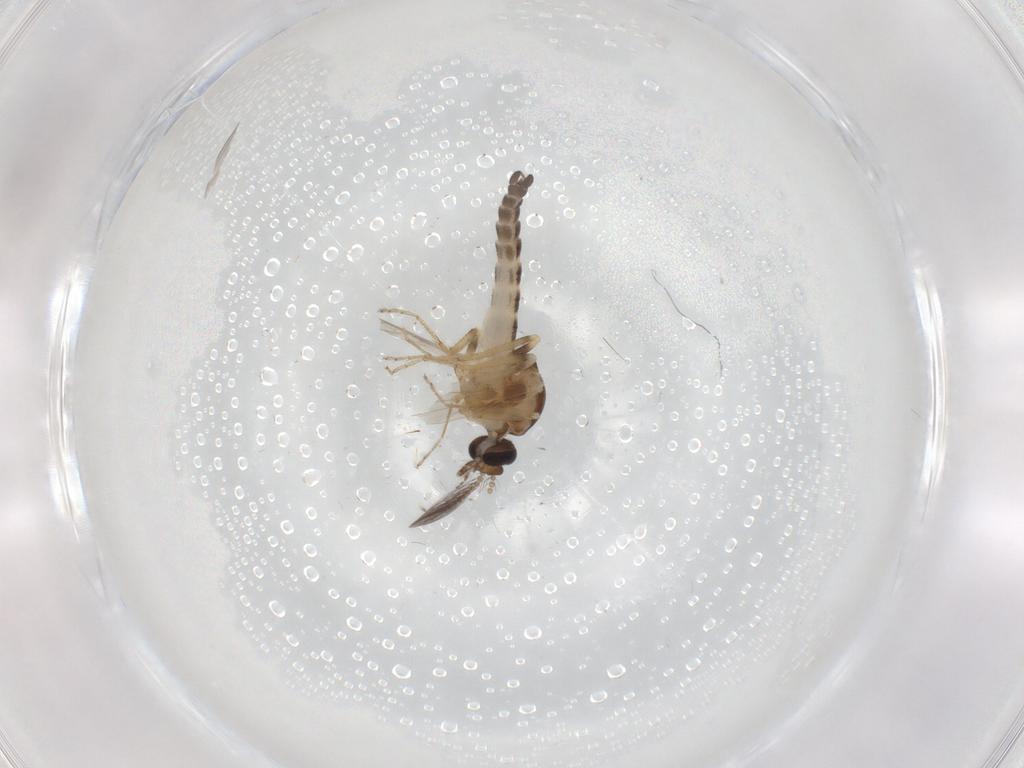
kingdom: Animalia
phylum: Arthropoda
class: Insecta
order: Diptera
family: Ceratopogonidae
